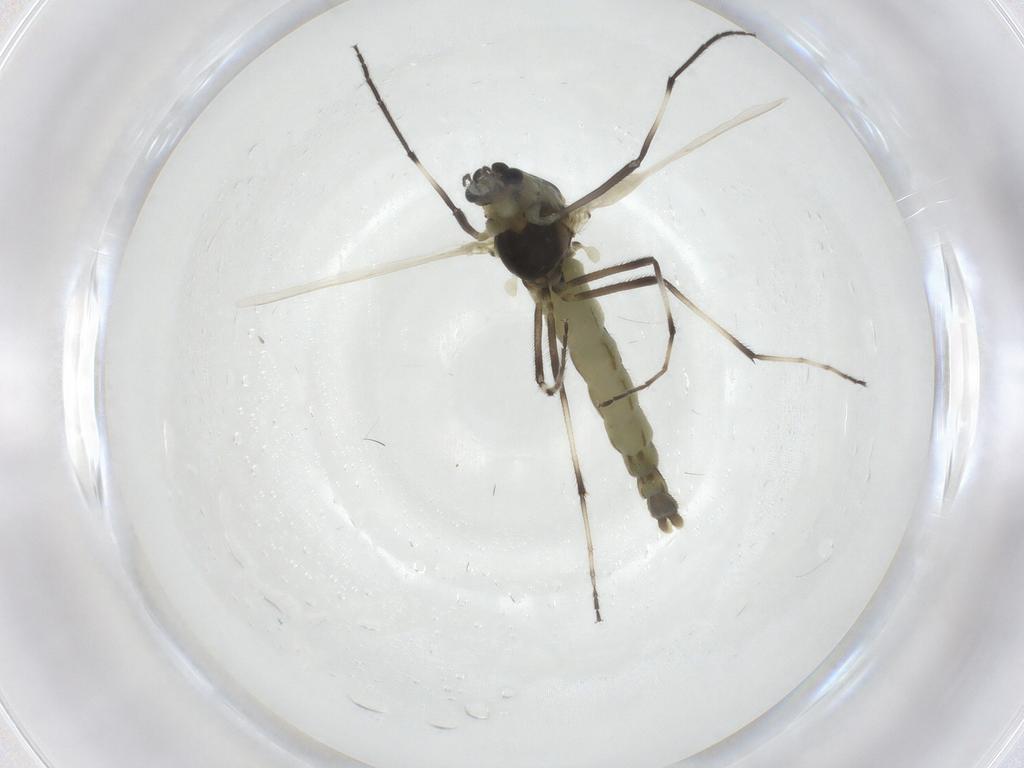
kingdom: Animalia
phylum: Arthropoda
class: Insecta
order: Diptera
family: Chironomidae
